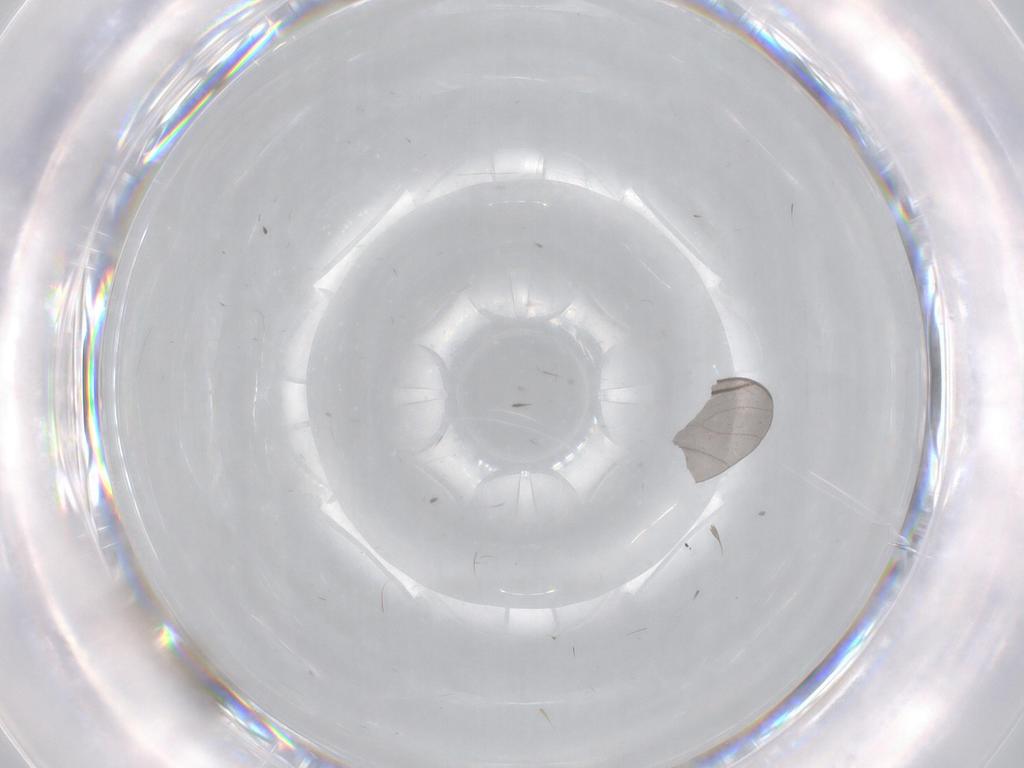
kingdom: Animalia
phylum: Arthropoda
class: Insecta
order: Diptera
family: Cecidomyiidae
